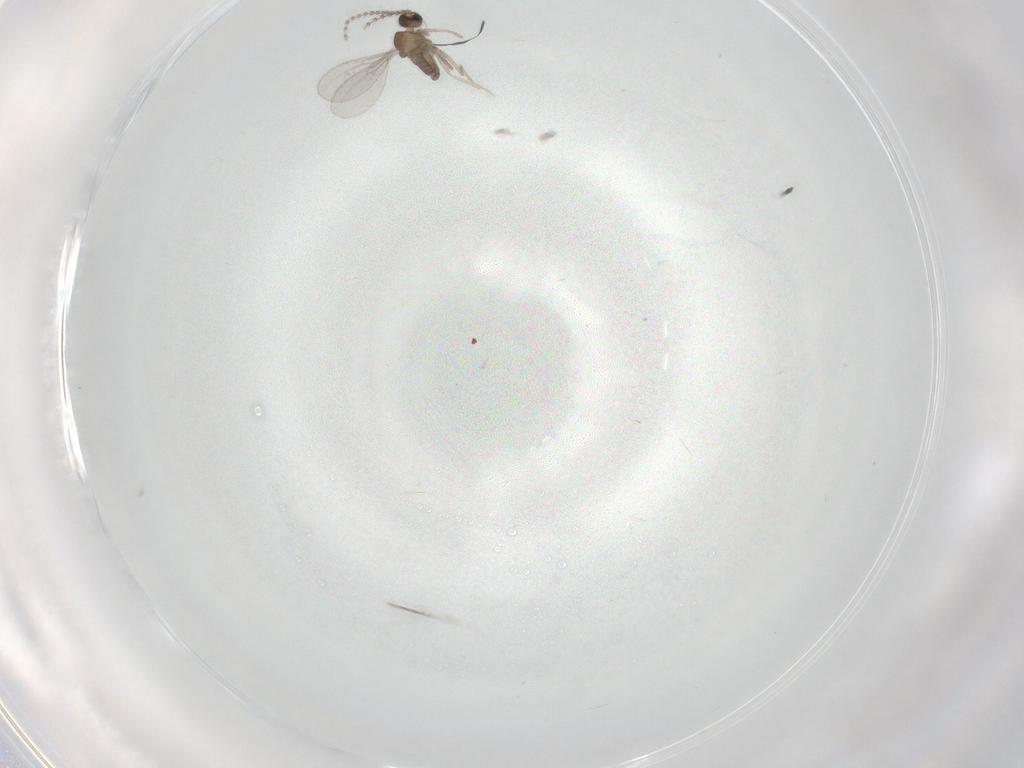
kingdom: Animalia
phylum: Arthropoda
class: Insecta
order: Diptera
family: Cecidomyiidae
